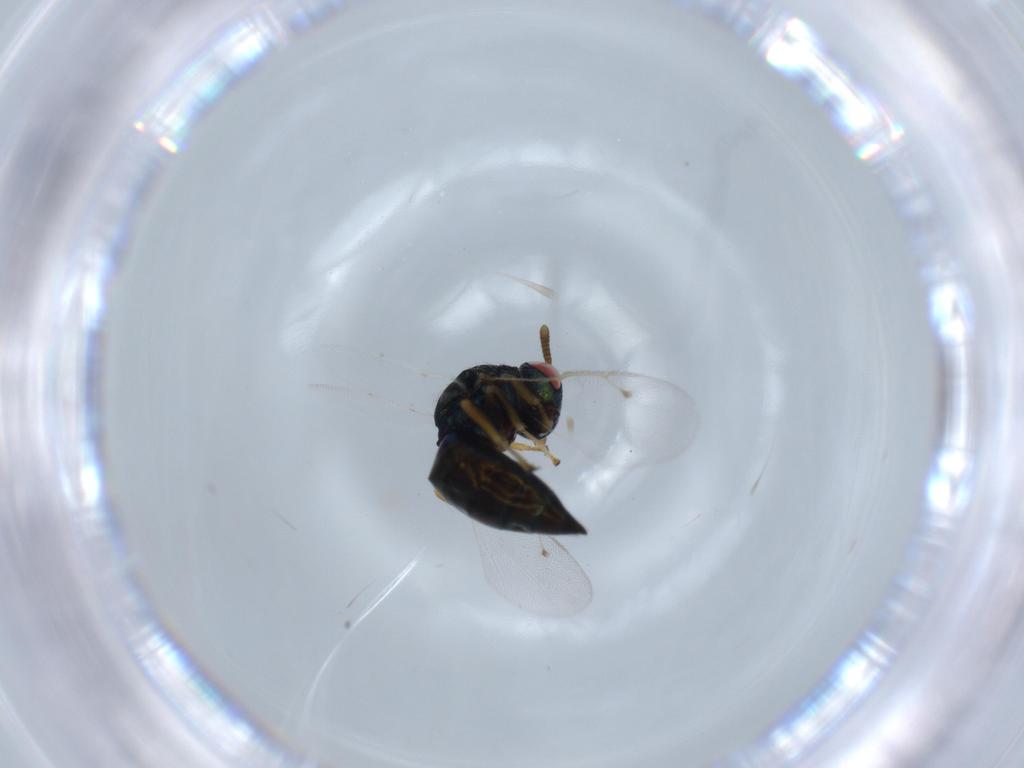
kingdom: Animalia
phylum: Arthropoda
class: Insecta
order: Hymenoptera
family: Pteromalidae
